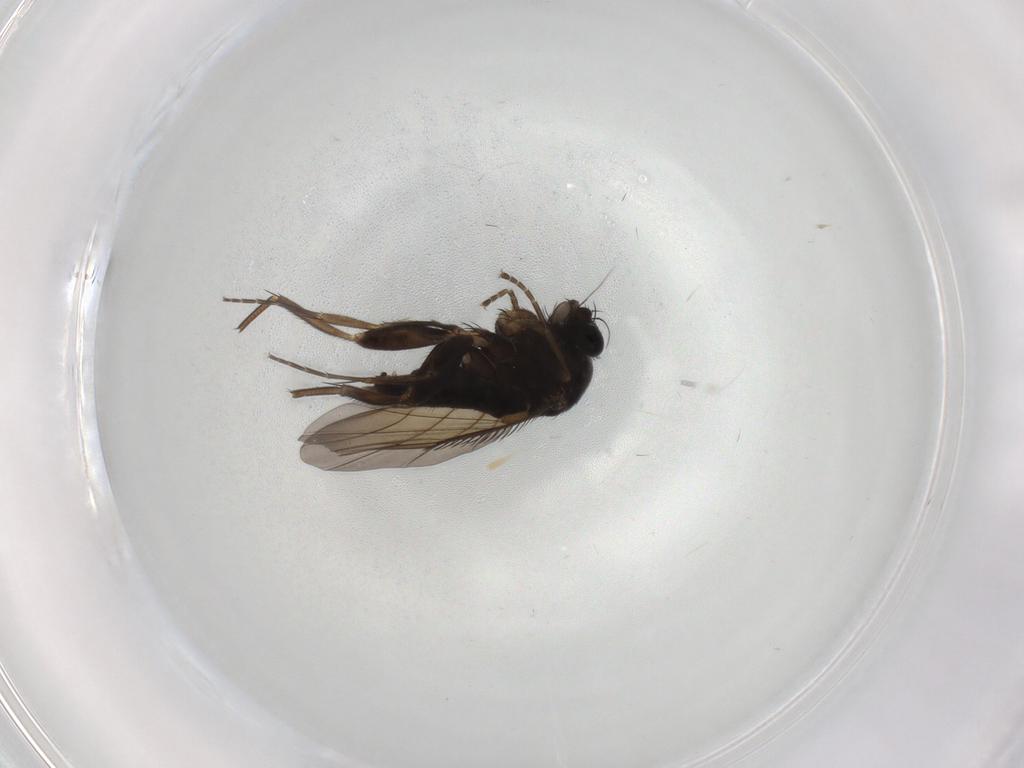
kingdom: Animalia
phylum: Arthropoda
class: Insecta
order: Diptera
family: Phoridae
